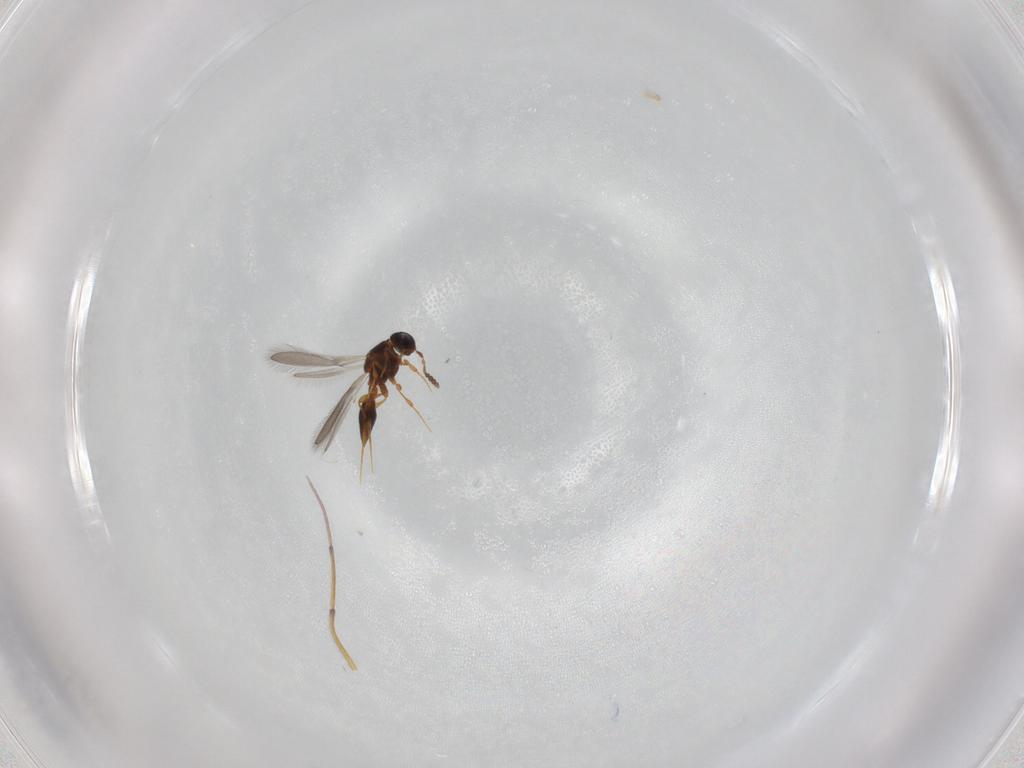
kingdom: Animalia
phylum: Arthropoda
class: Insecta
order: Hymenoptera
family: Platygastridae
